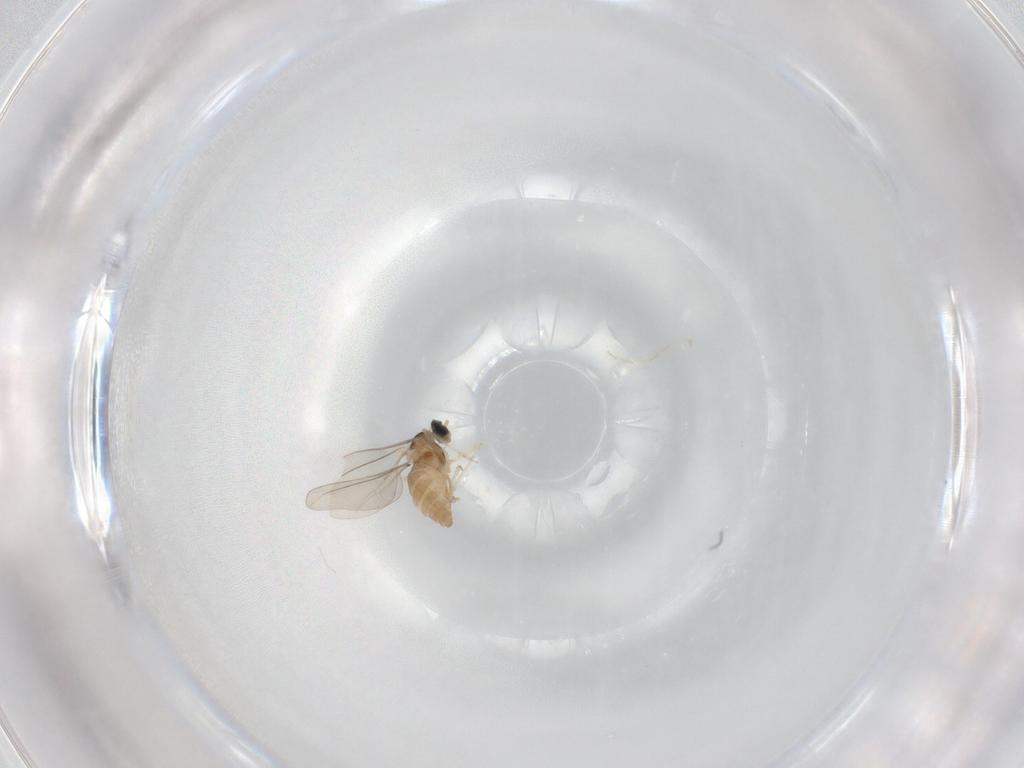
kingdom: Animalia
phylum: Arthropoda
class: Insecta
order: Diptera
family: Cecidomyiidae
